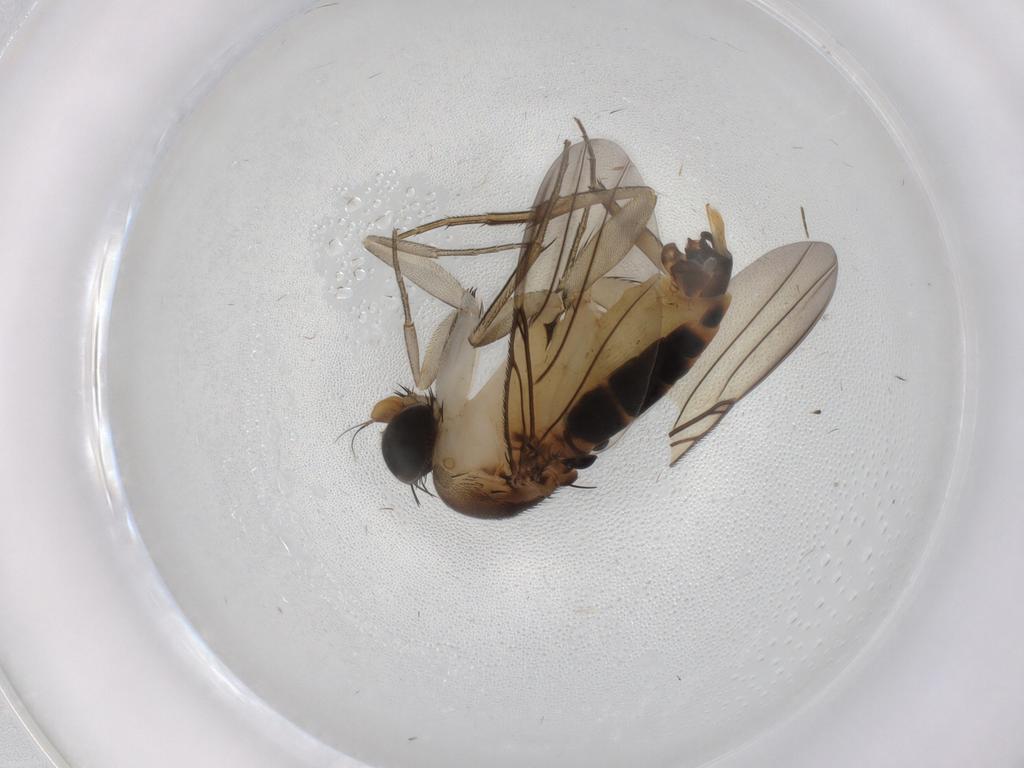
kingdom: Animalia
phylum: Arthropoda
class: Insecta
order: Diptera
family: Phoridae
